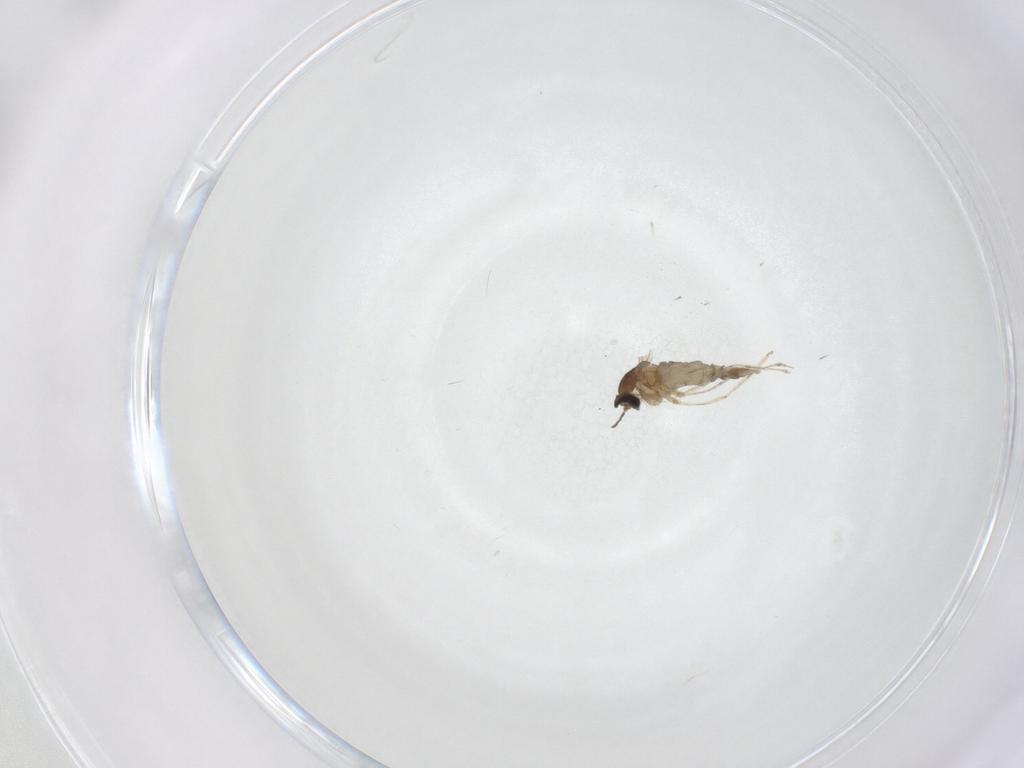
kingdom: Animalia
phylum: Arthropoda
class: Insecta
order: Diptera
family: Cecidomyiidae
